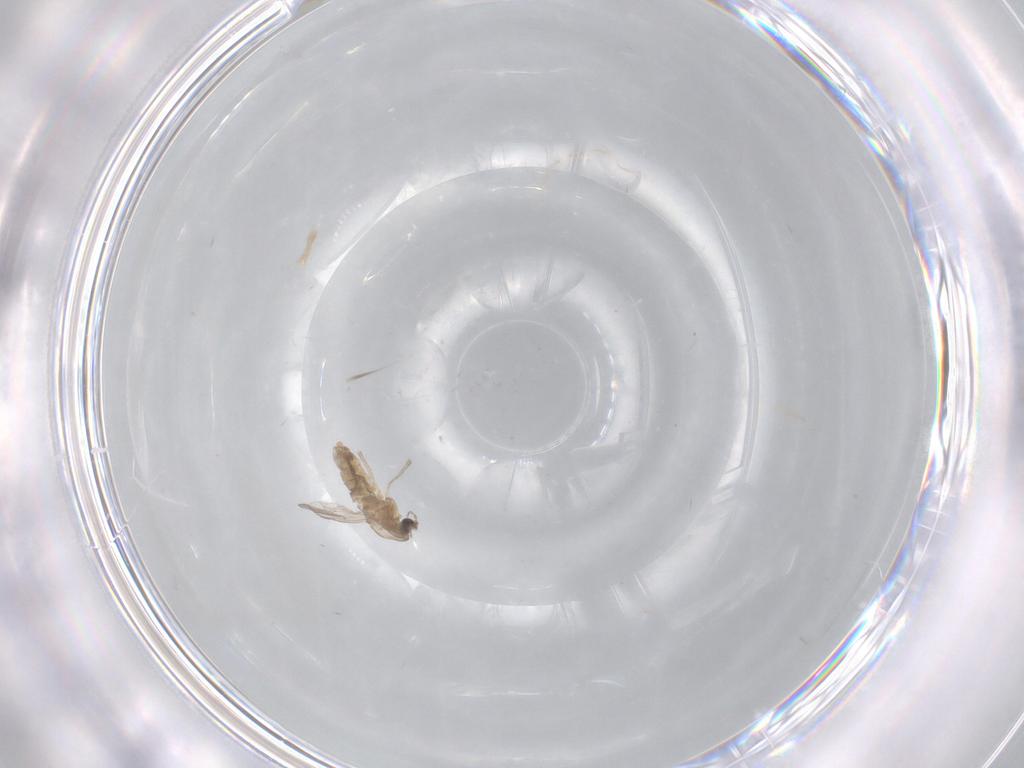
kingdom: Animalia
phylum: Arthropoda
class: Insecta
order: Diptera
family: Chironomidae
